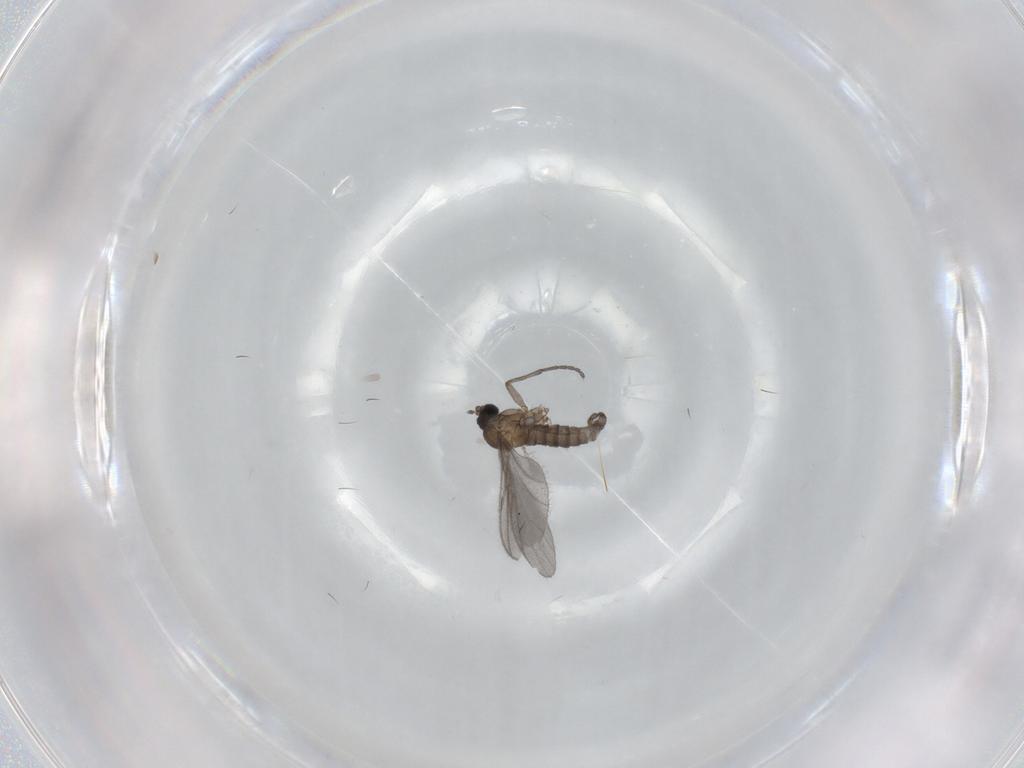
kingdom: Animalia
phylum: Arthropoda
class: Insecta
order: Diptera
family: Sciaridae
